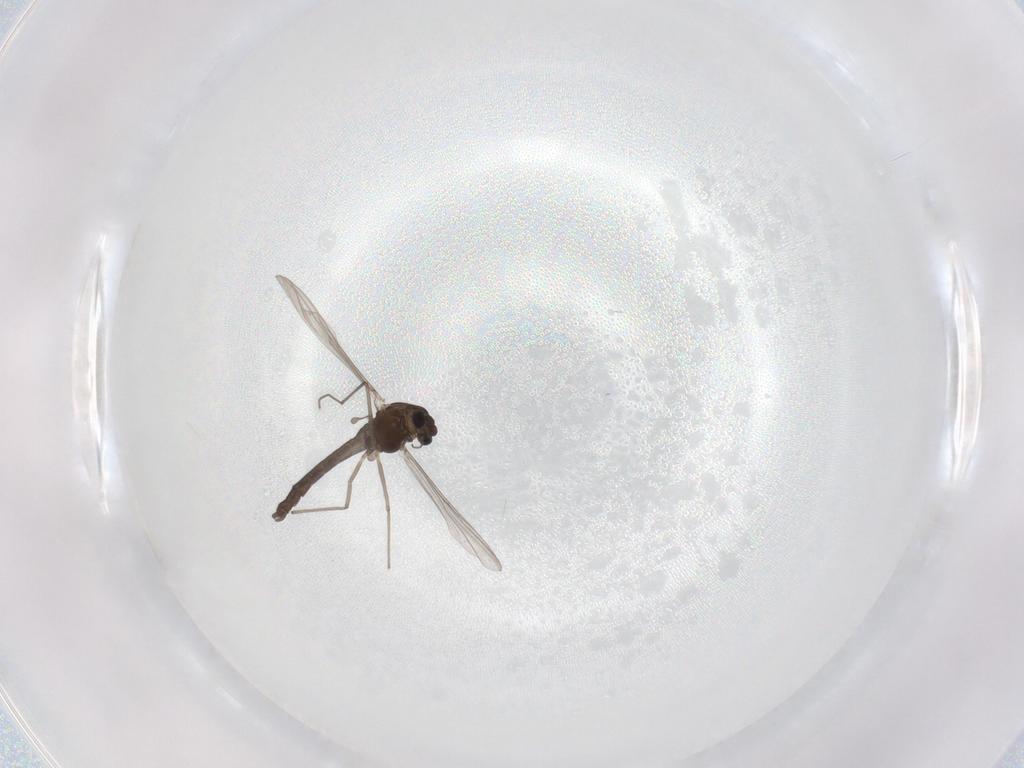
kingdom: Animalia
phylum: Arthropoda
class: Insecta
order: Diptera
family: Chironomidae
